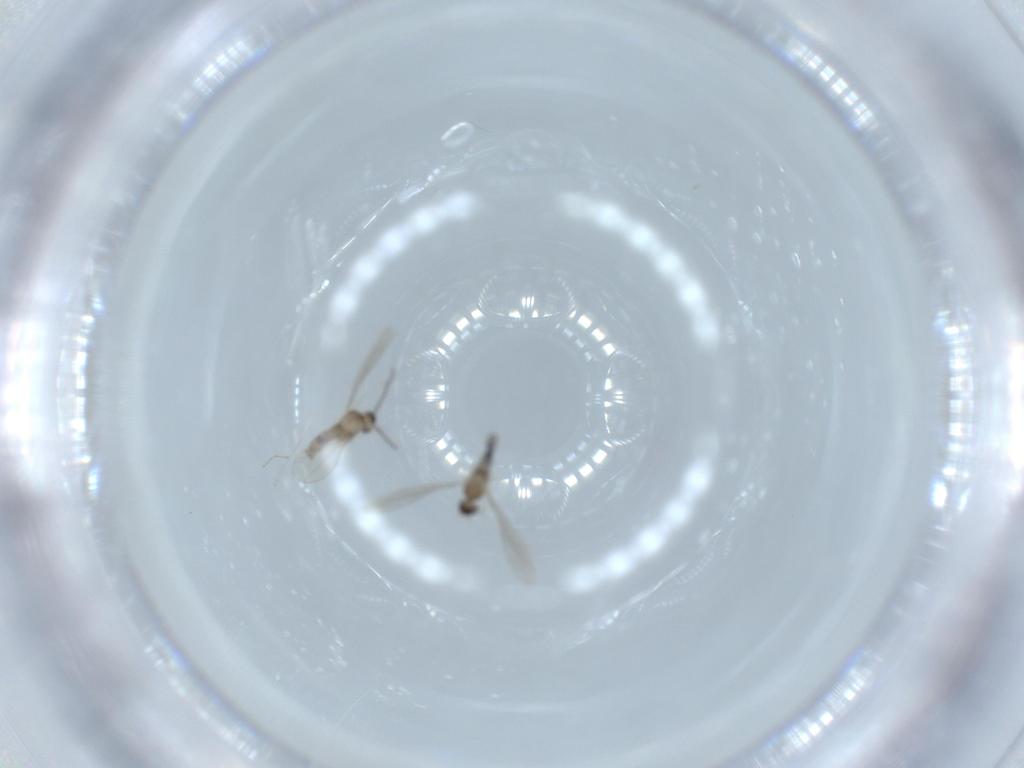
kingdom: Animalia
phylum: Arthropoda
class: Insecta
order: Diptera
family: Cecidomyiidae
